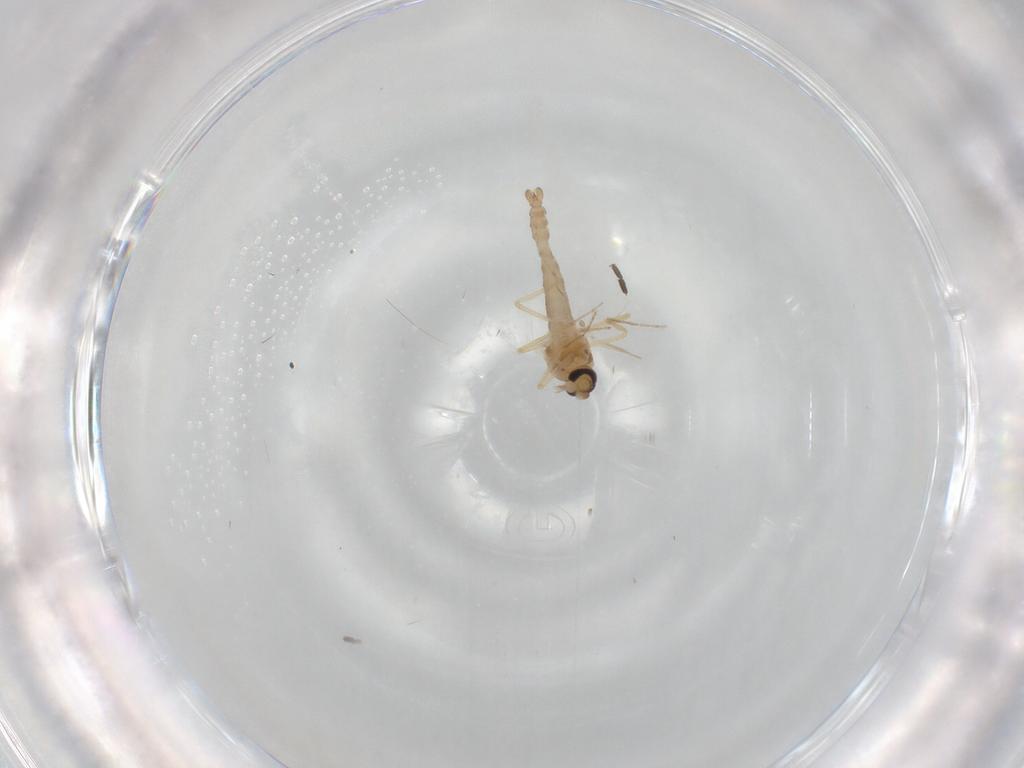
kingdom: Animalia
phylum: Arthropoda
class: Insecta
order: Diptera
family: Ceratopogonidae
